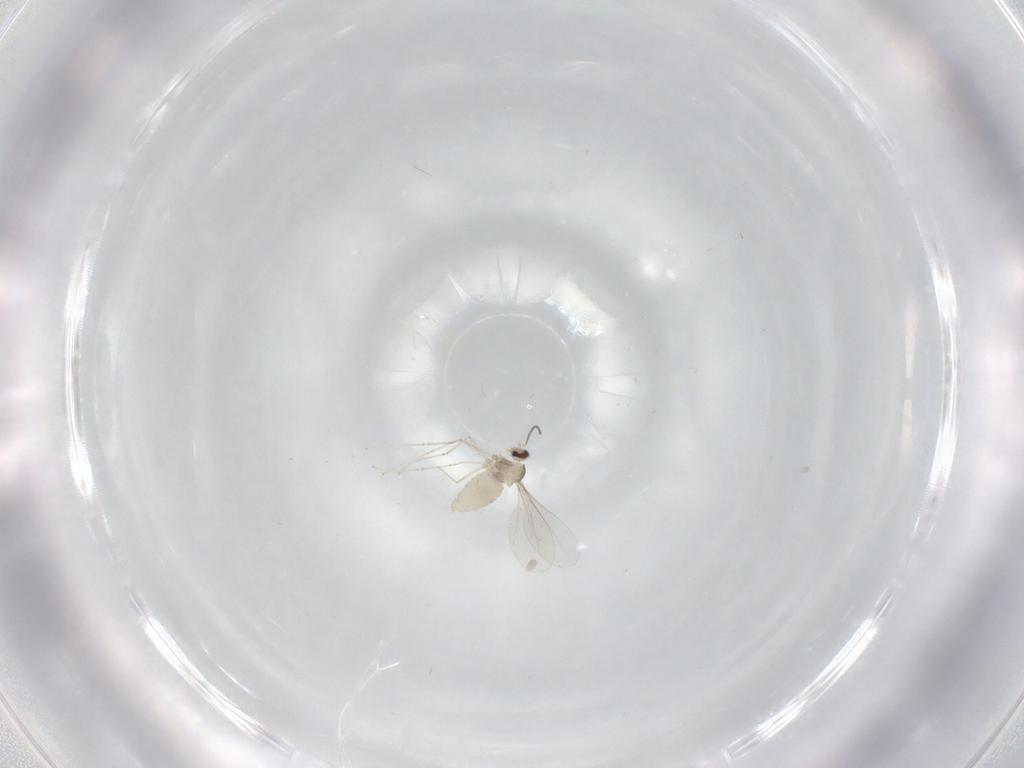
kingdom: Animalia
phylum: Arthropoda
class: Insecta
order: Diptera
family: Cecidomyiidae
